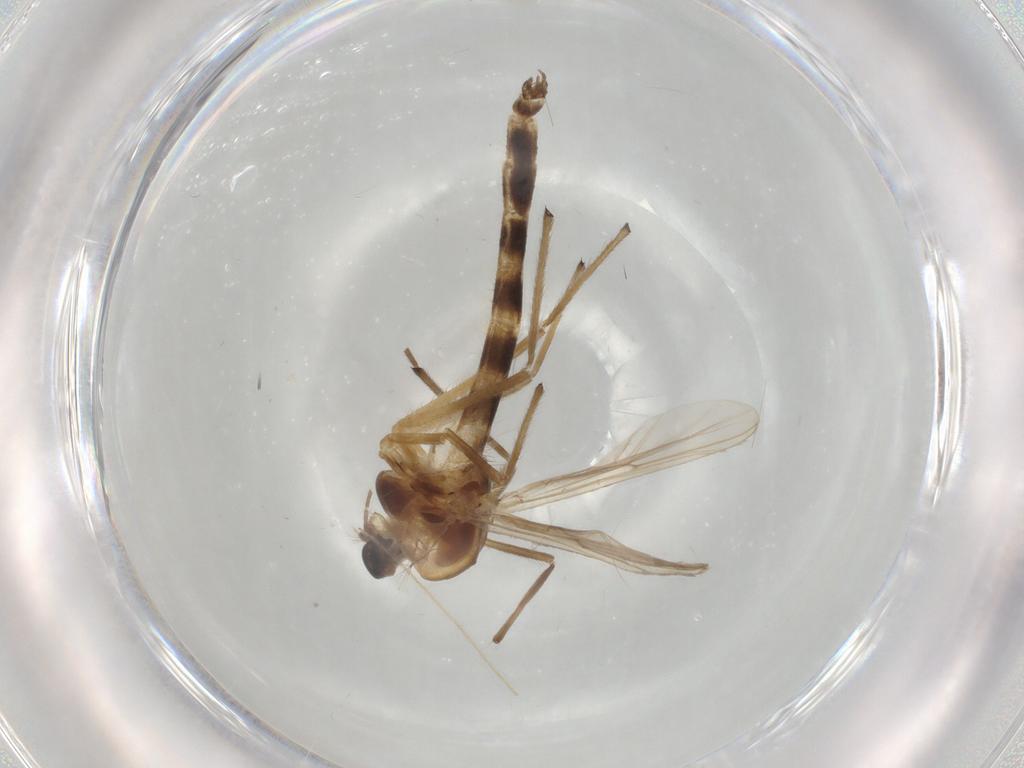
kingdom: Animalia
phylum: Arthropoda
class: Insecta
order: Diptera
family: Chironomidae
